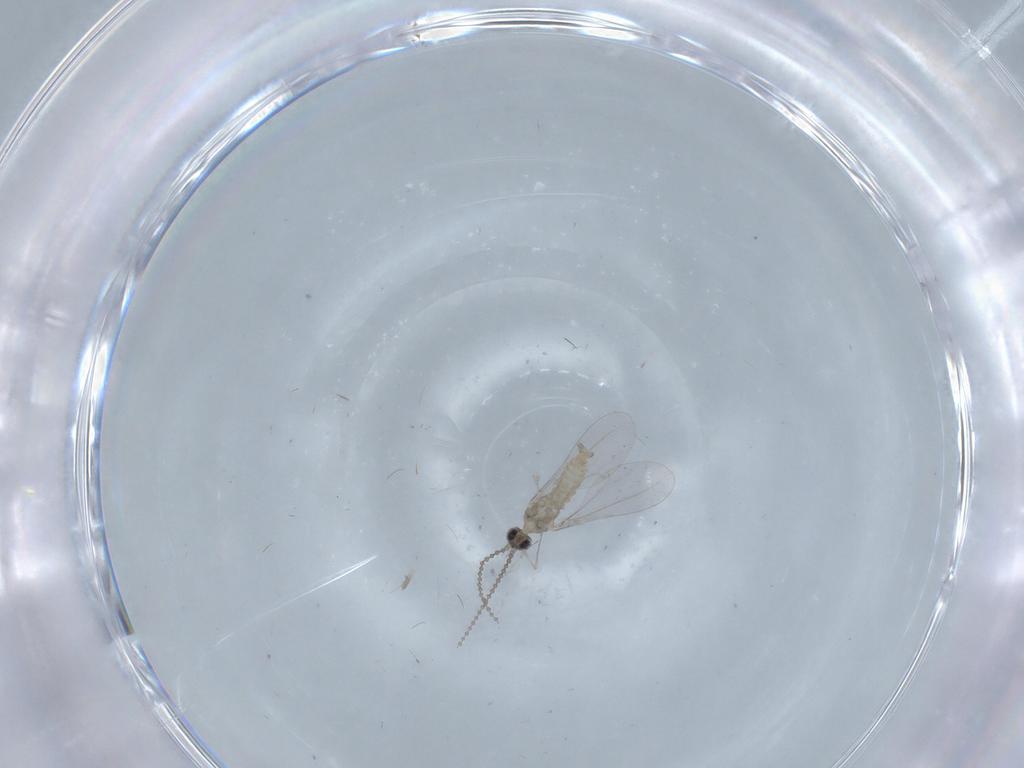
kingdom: Animalia
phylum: Arthropoda
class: Insecta
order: Diptera
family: Cecidomyiidae
